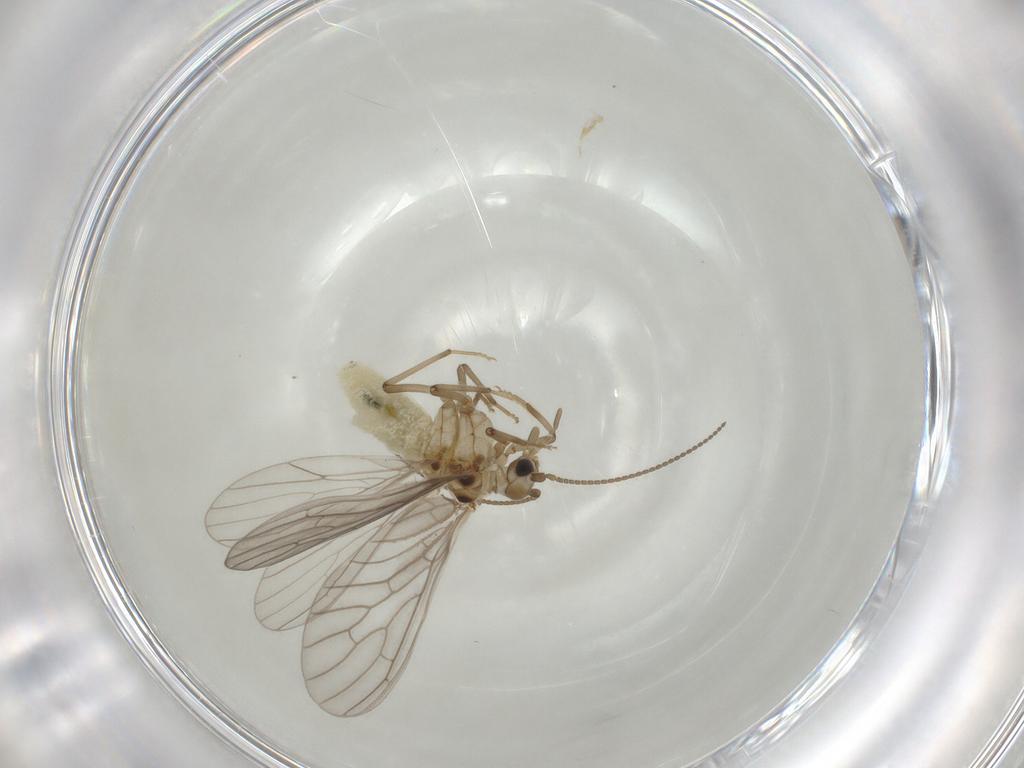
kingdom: Animalia
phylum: Arthropoda
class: Insecta
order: Neuroptera
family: Coniopterygidae
